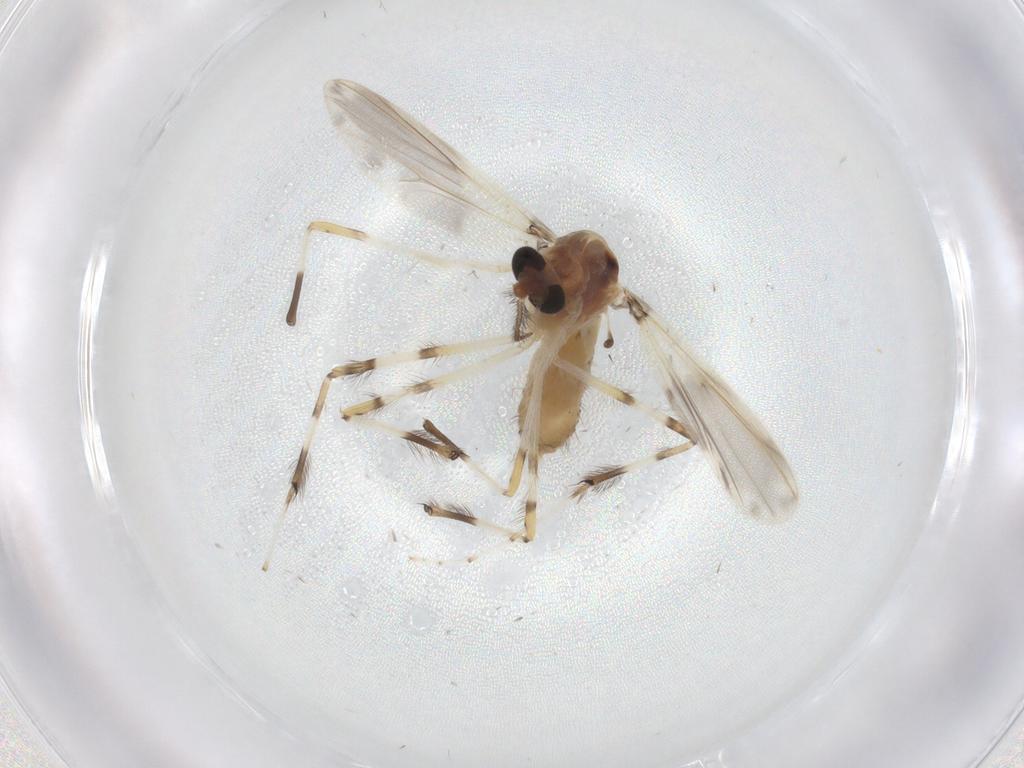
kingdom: Animalia
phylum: Arthropoda
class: Insecta
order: Diptera
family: Chironomidae
